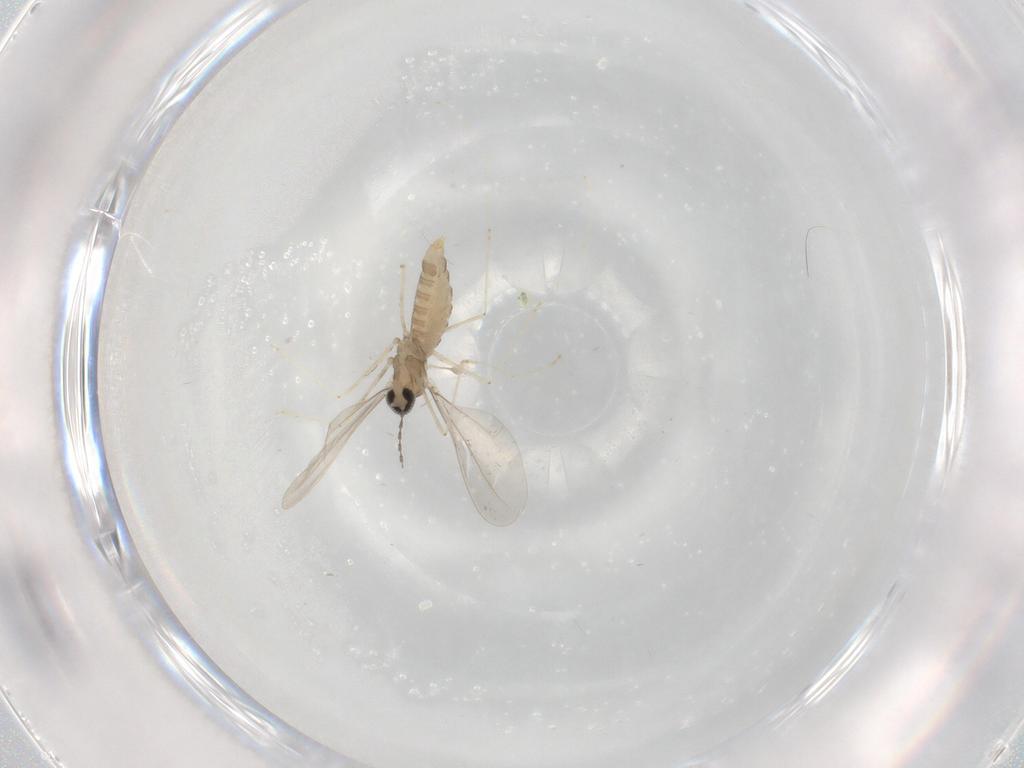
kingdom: Animalia
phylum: Arthropoda
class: Insecta
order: Diptera
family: Cecidomyiidae
